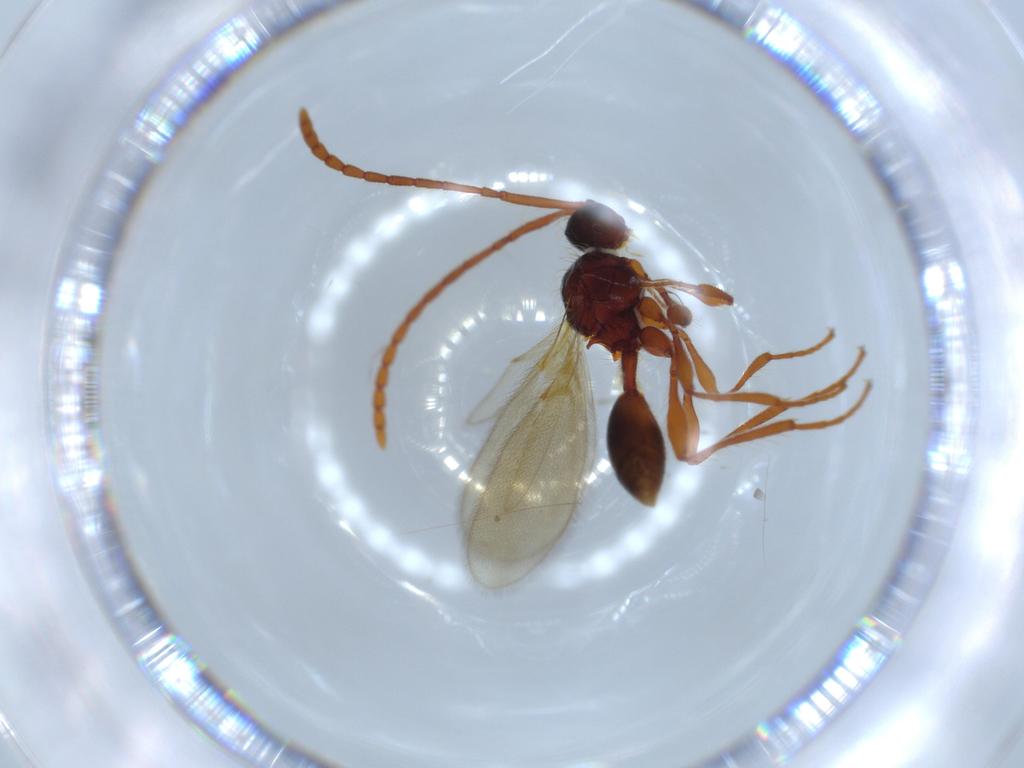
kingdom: Animalia
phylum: Arthropoda
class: Insecta
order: Hymenoptera
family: Diapriidae
